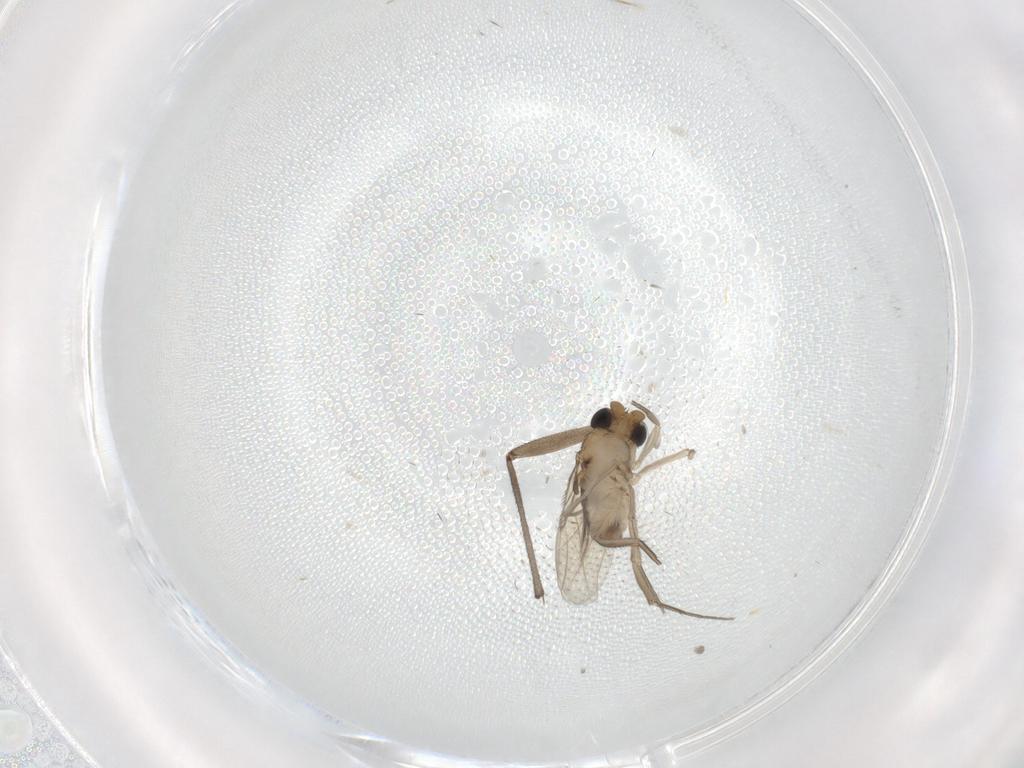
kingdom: Animalia
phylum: Arthropoda
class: Insecta
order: Diptera
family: Phoridae
